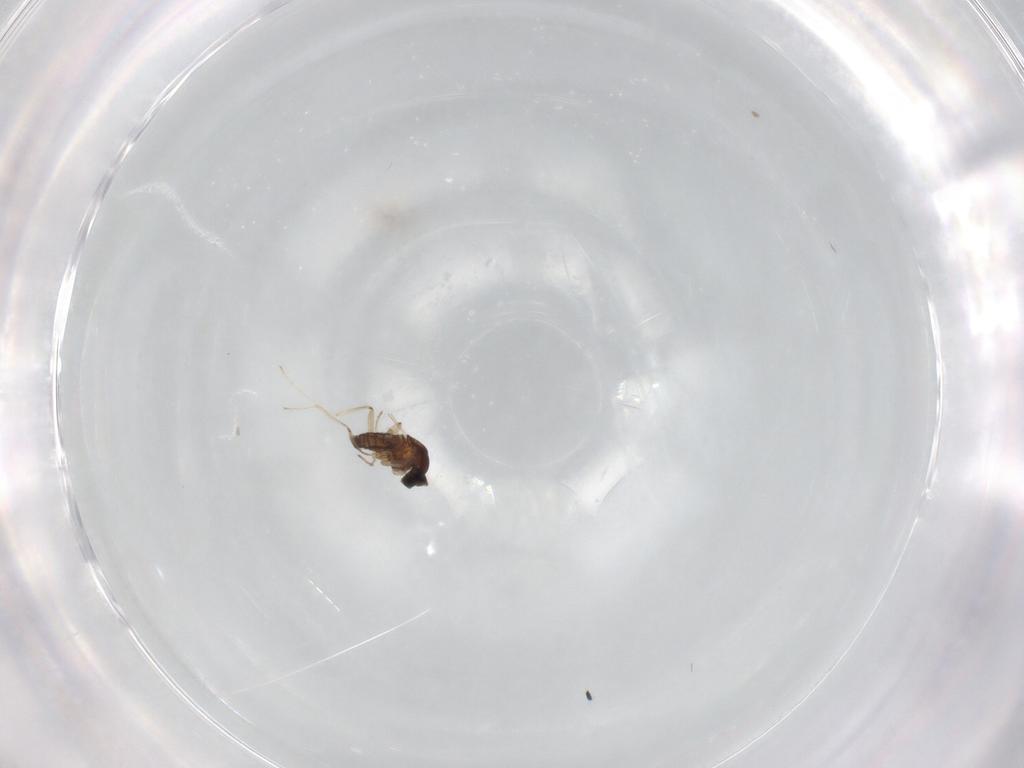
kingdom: Animalia
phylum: Arthropoda
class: Insecta
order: Diptera
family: Cecidomyiidae
